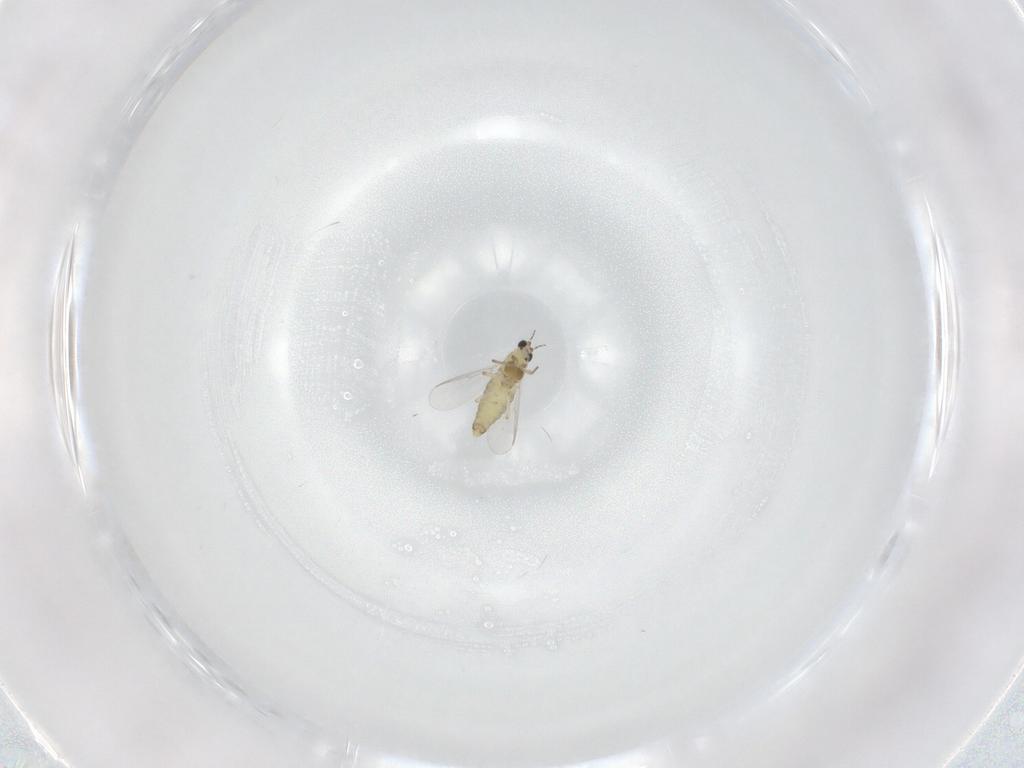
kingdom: Animalia
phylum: Arthropoda
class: Insecta
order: Diptera
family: Chironomidae
